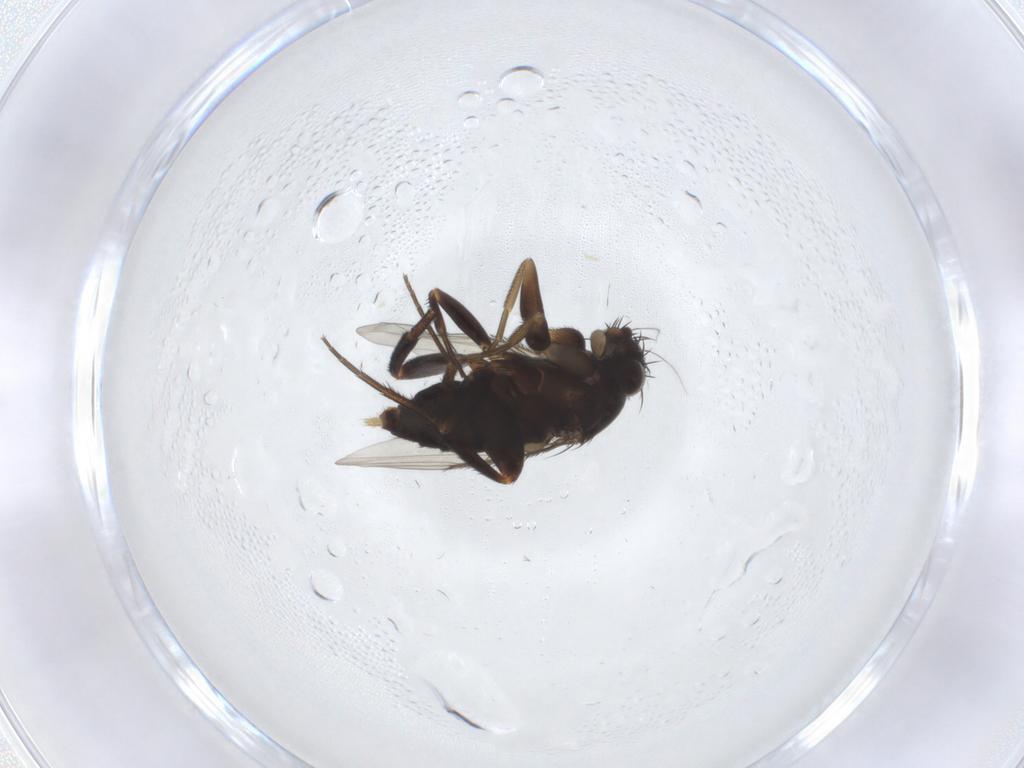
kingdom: Animalia
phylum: Arthropoda
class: Insecta
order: Diptera
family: Phoridae
